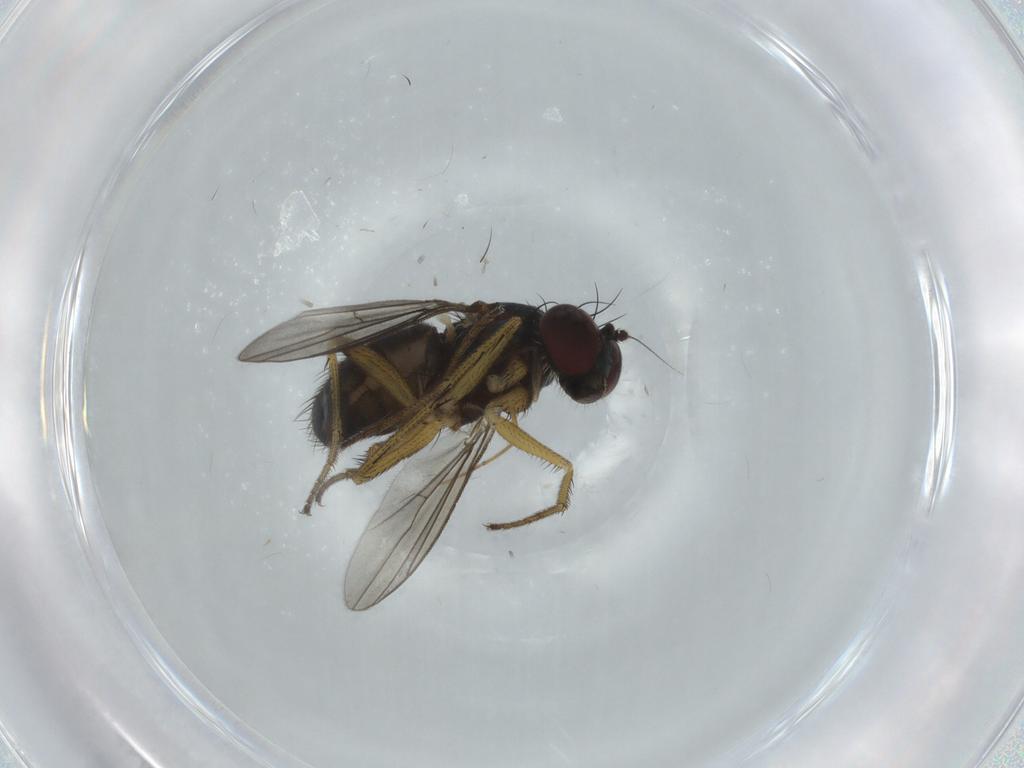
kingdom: Animalia
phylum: Arthropoda
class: Insecta
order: Diptera
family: Dolichopodidae
